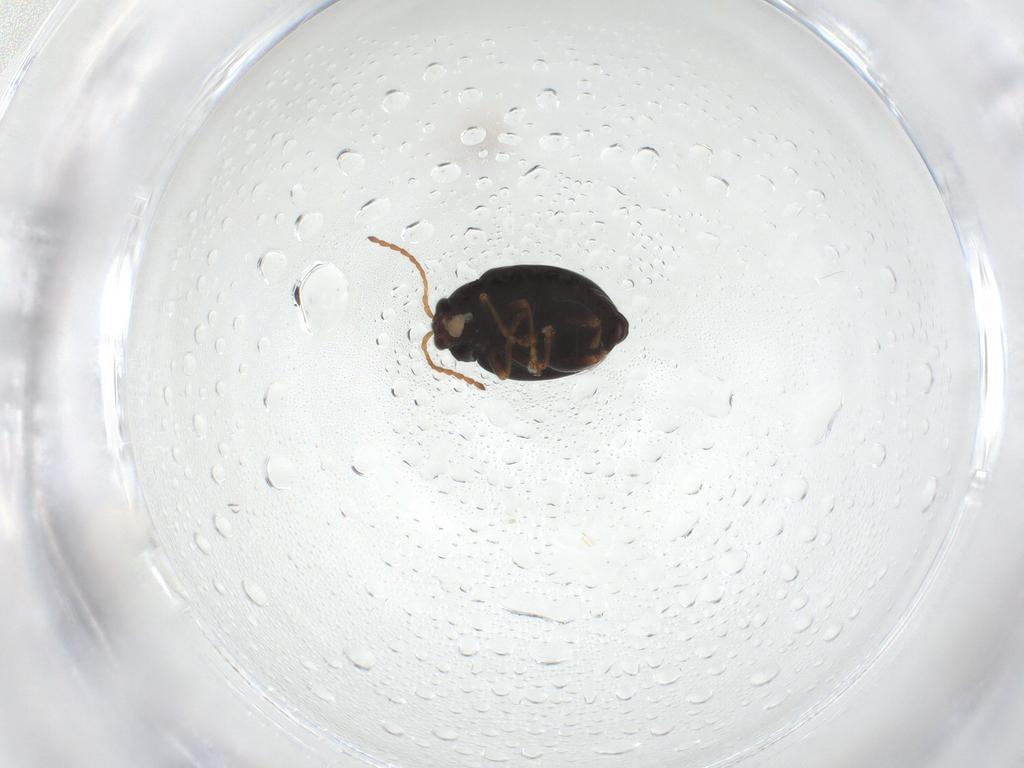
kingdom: Animalia
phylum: Arthropoda
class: Insecta
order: Coleoptera
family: Chrysomelidae
